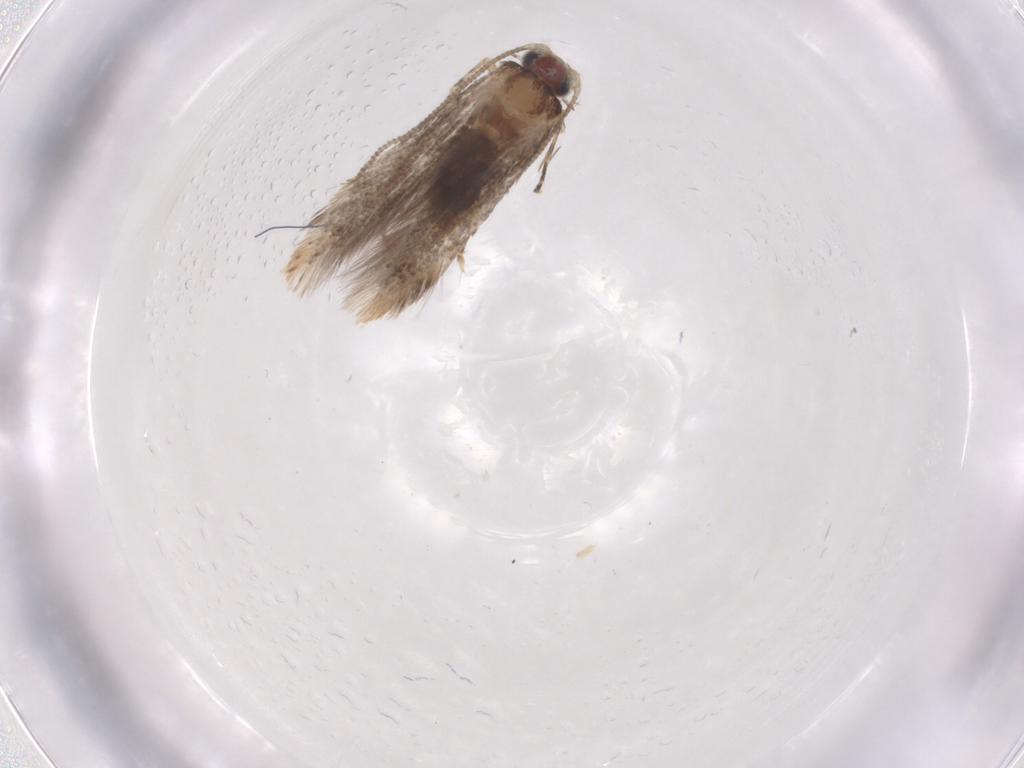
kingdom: Animalia
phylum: Arthropoda
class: Insecta
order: Lepidoptera
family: Tineidae
